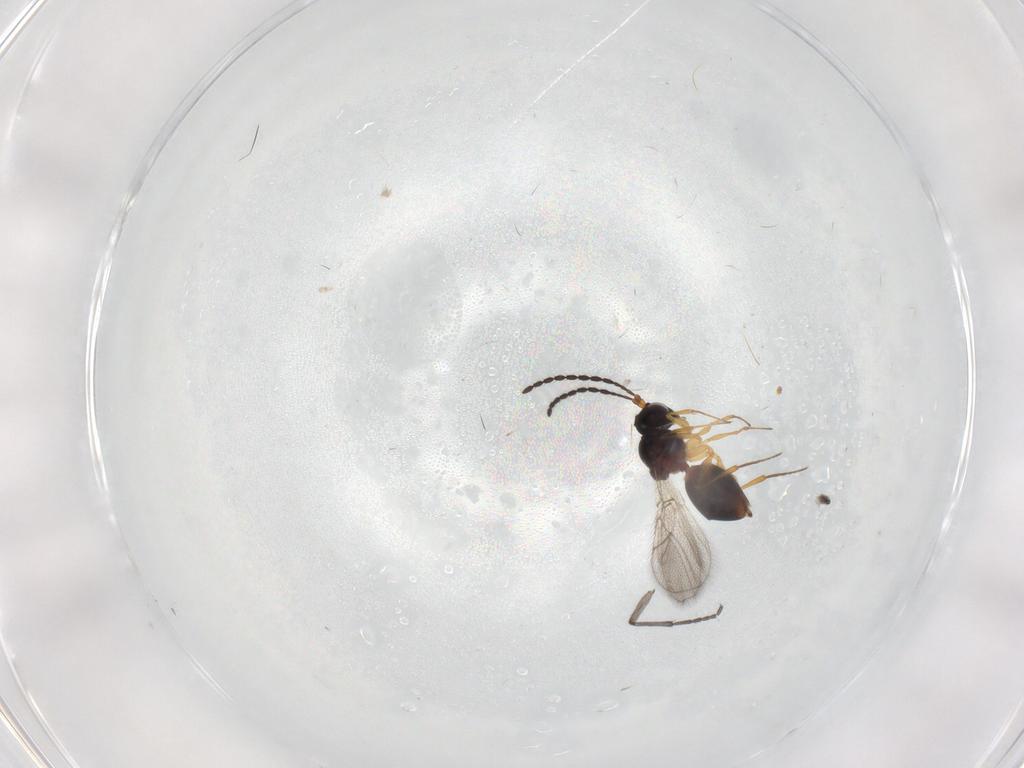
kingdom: Animalia
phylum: Arthropoda
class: Insecta
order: Hymenoptera
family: Figitidae
